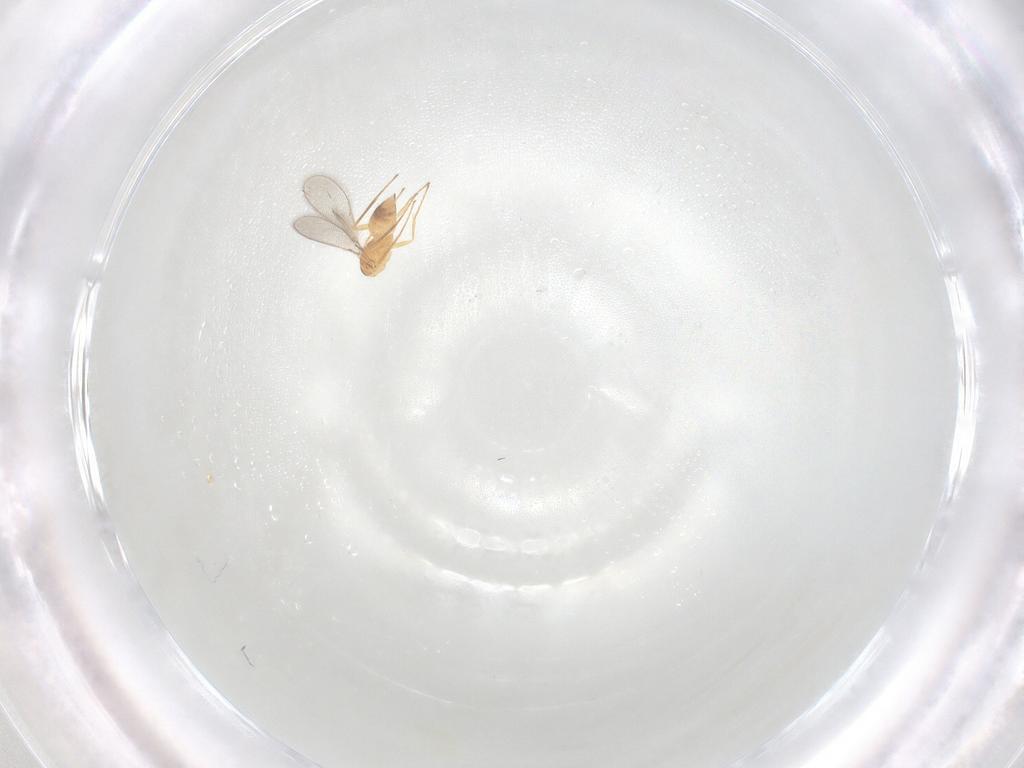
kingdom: Animalia
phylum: Arthropoda
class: Insecta
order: Hymenoptera
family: Mymaridae
